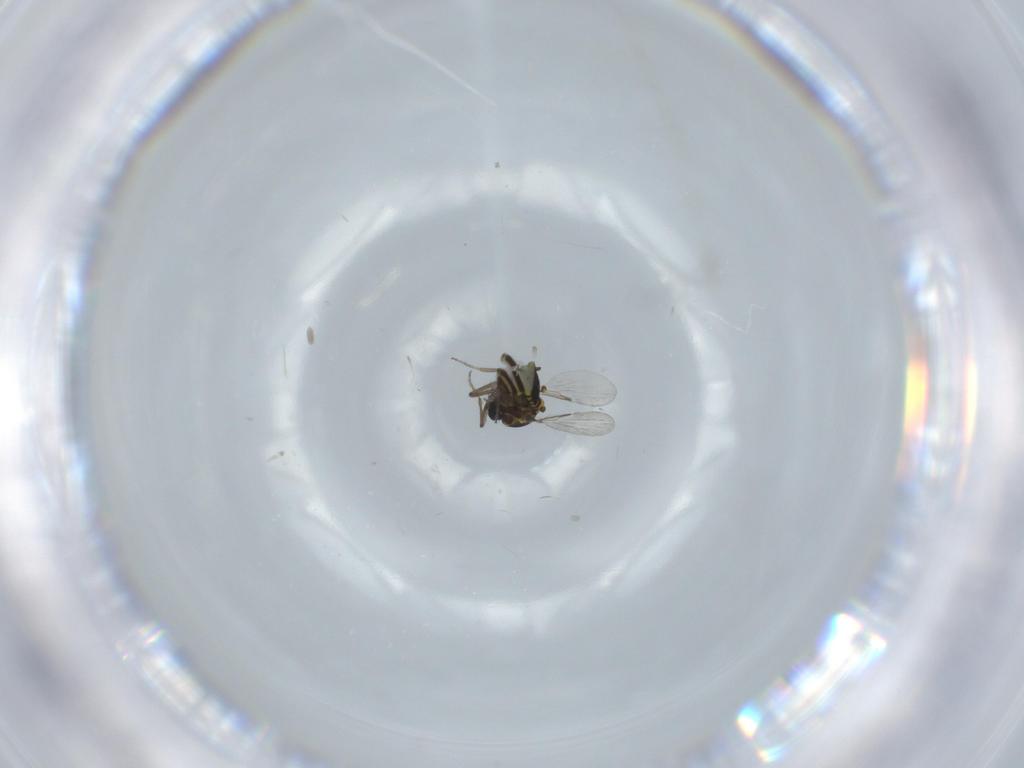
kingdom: Animalia
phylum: Arthropoda
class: Insecta
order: Diptera
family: Ceratopogonidae
